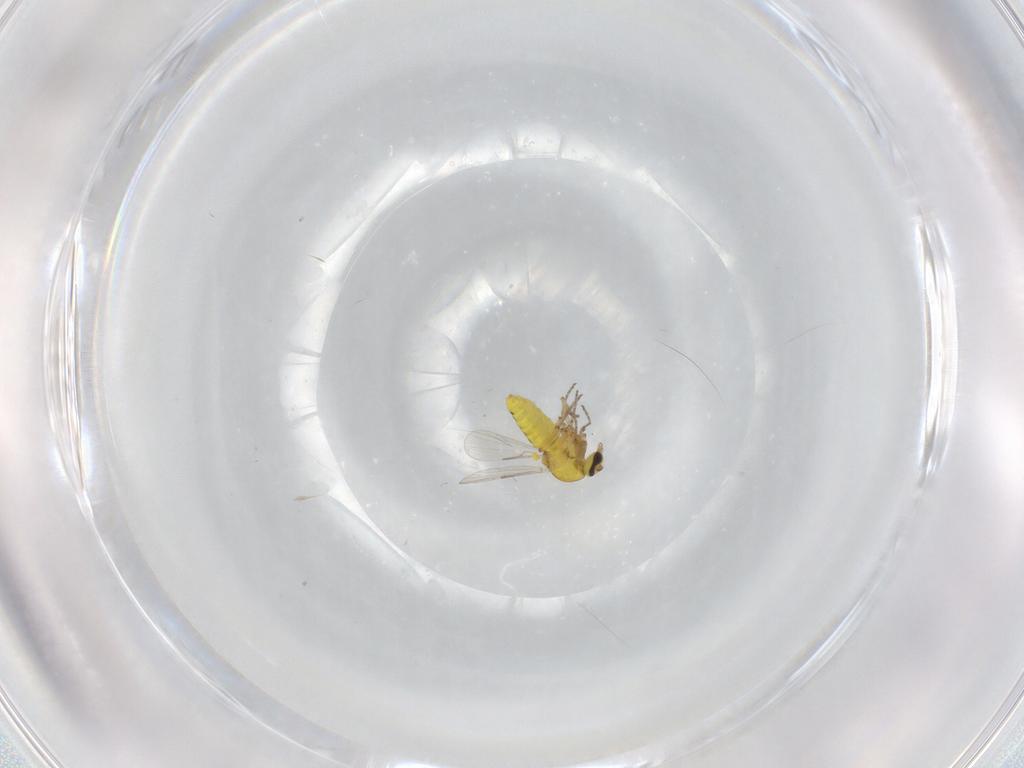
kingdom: Animalia
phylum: Arthropoda
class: Insecta
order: Diptera
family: Ceratopogonidae
